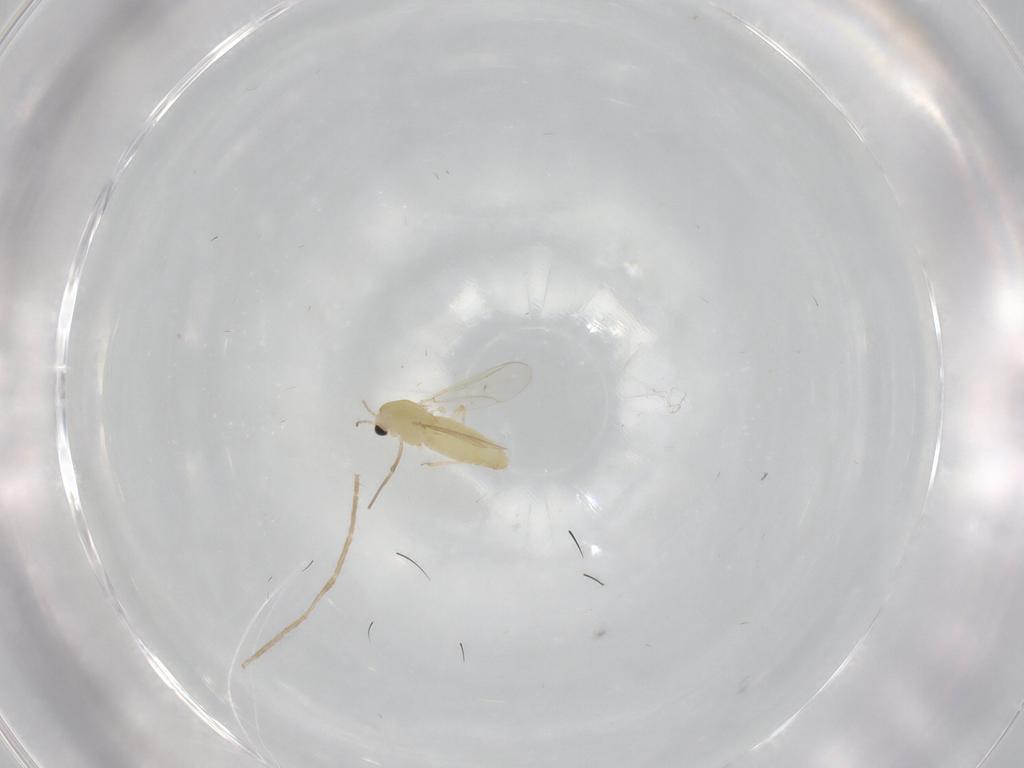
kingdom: Animalia
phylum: Arthropoda
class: Insecta
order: Diptera
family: Chironomidae
